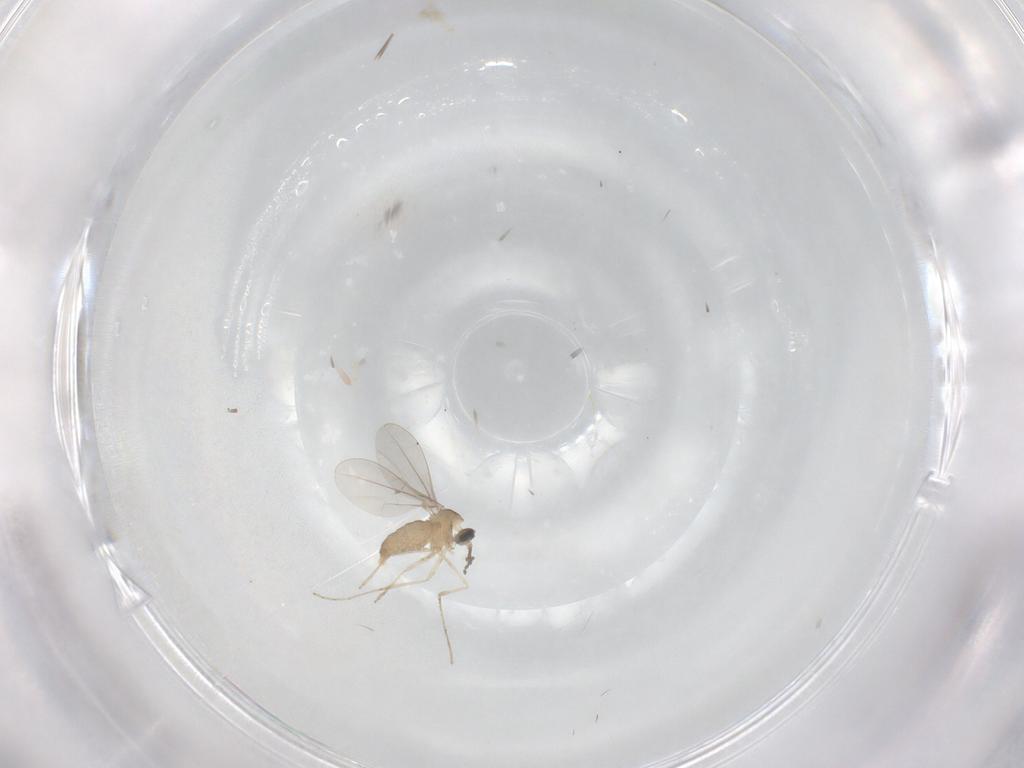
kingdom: Animalia
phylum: Arthropoda
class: Insecta
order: Diptera
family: Cecidomyiidae
